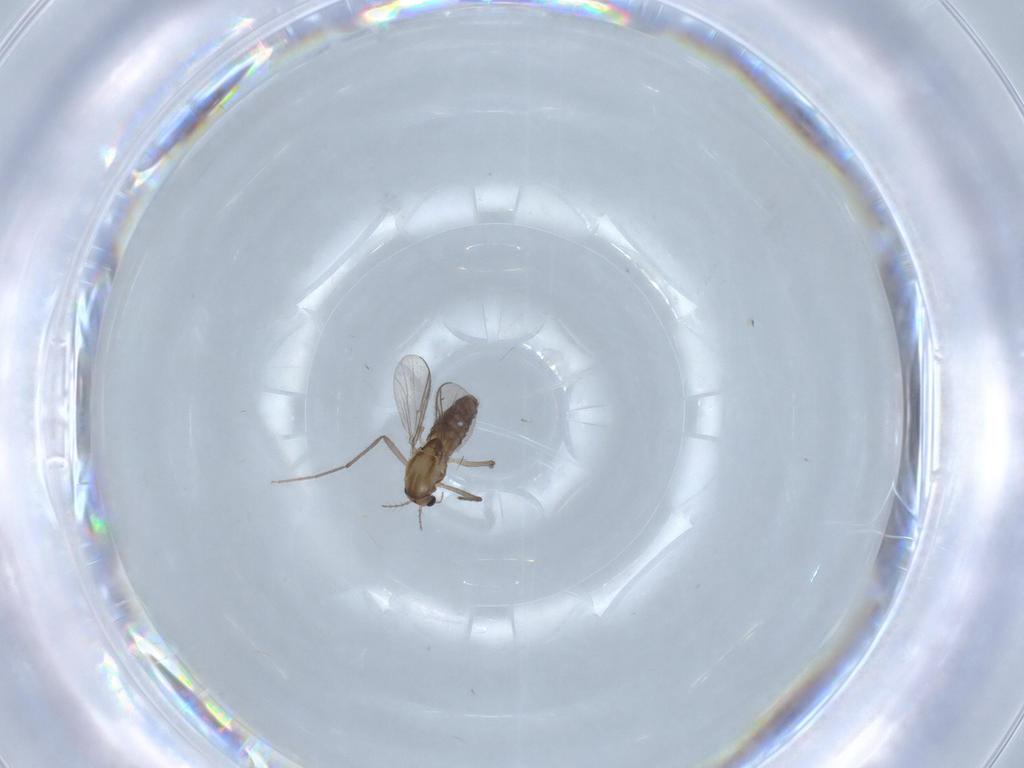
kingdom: Animalia
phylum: Arthropoda
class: Insecta
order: Diptera
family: Chironomidae
